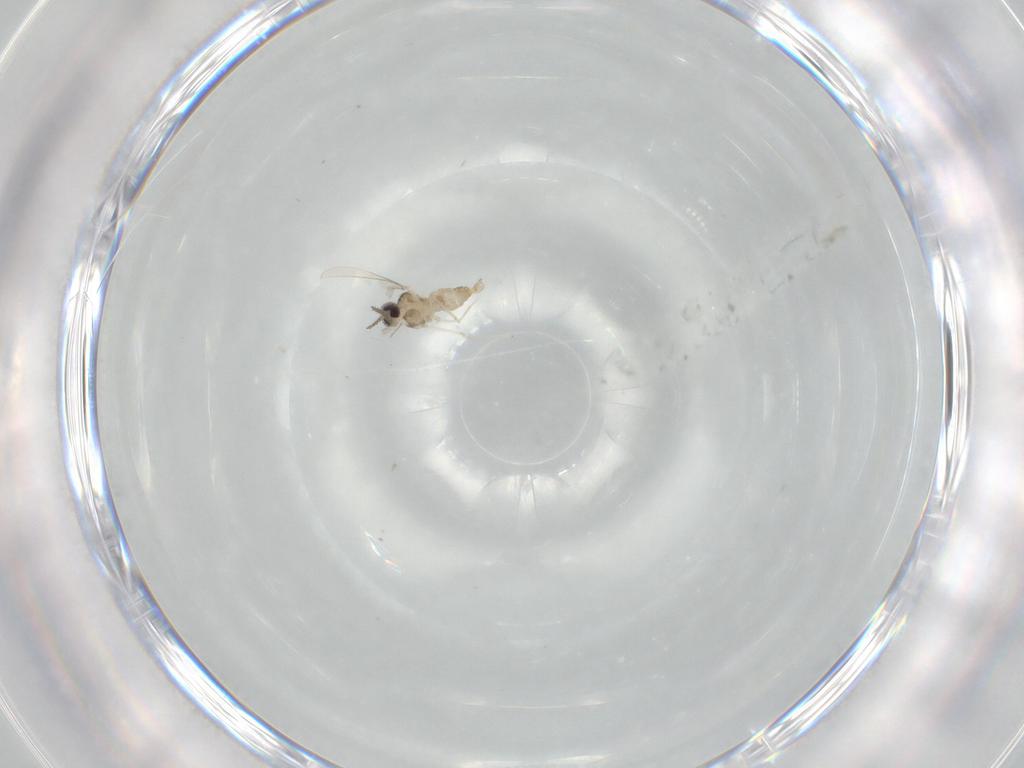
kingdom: Animalia
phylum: Arthropoda
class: Insecta
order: Diptera
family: Cecidomyiidae
